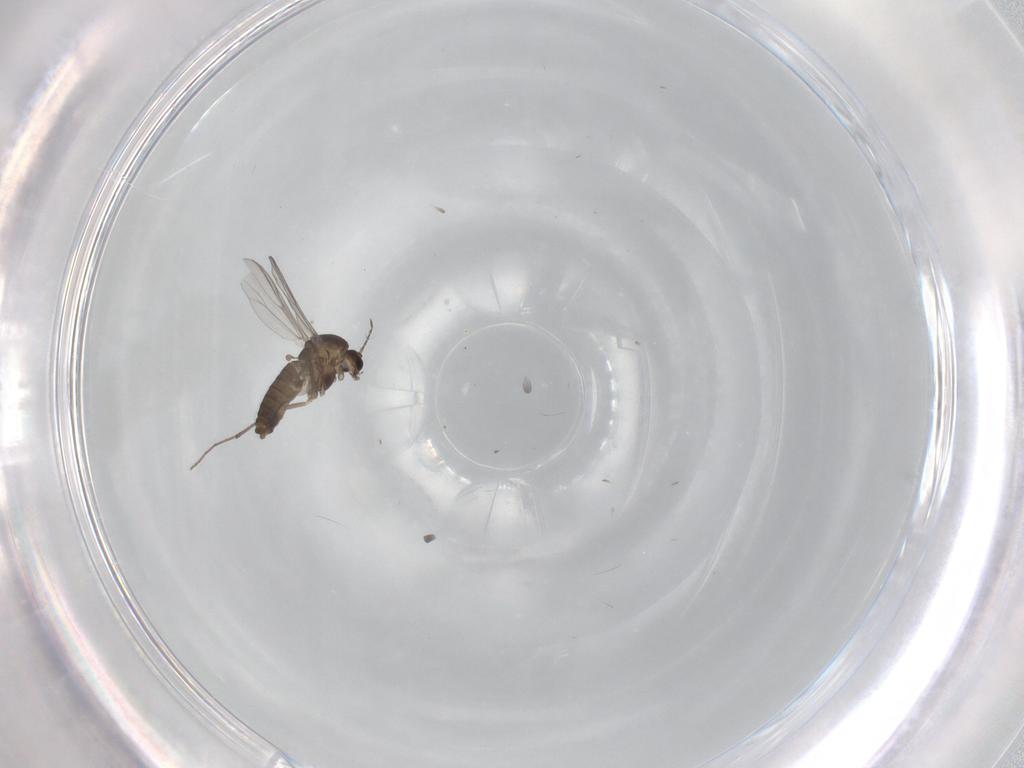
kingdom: Animalia
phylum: Arthropoda
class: Insecta
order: Diptera
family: Chironomidae
